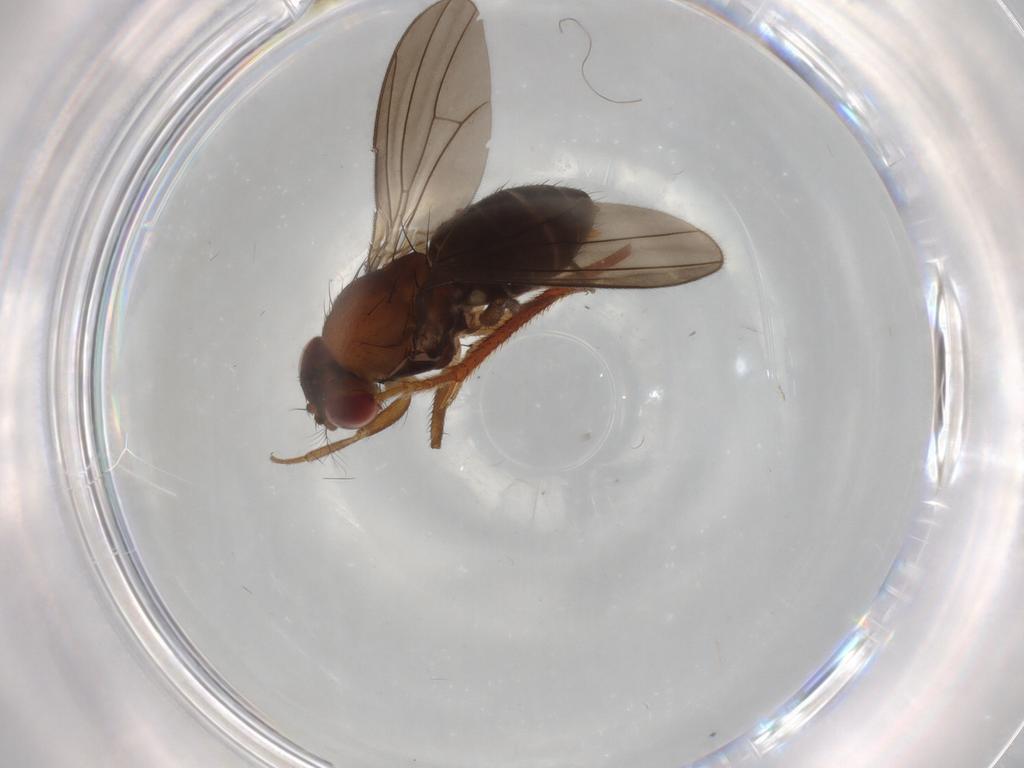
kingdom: Animalia
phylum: Arthropoda
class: Insecta
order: Diptera
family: Drosophilidae
